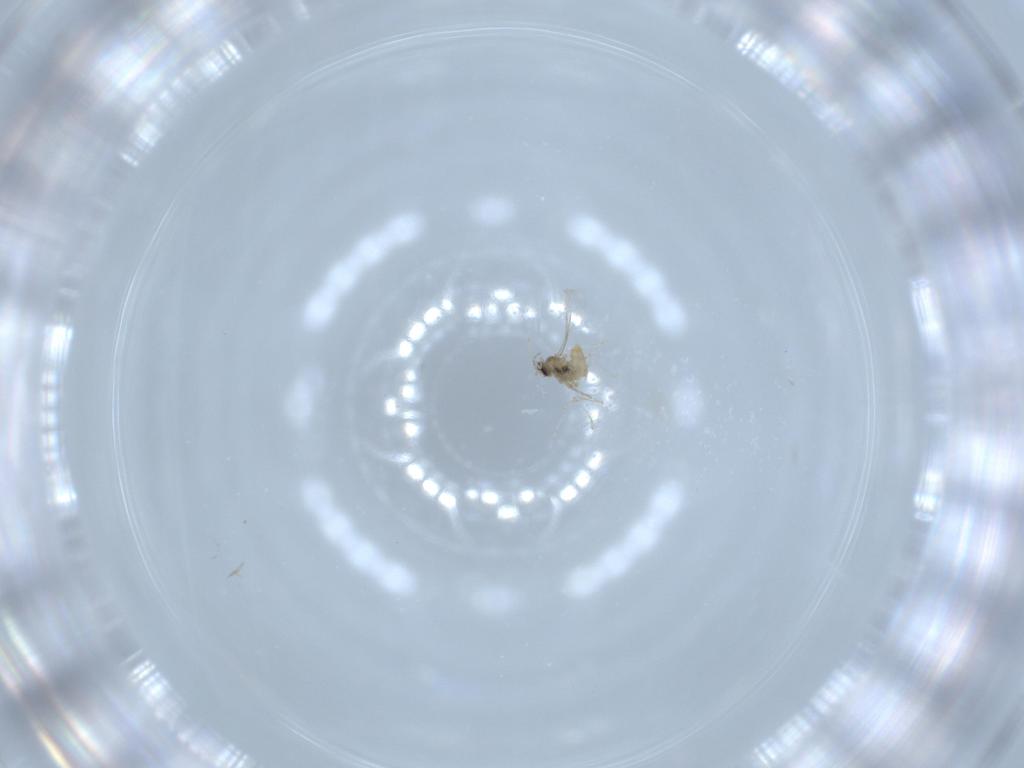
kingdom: Animalia
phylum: Arthropoda
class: Insecta
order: Diptera
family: Cecidomyiidae
